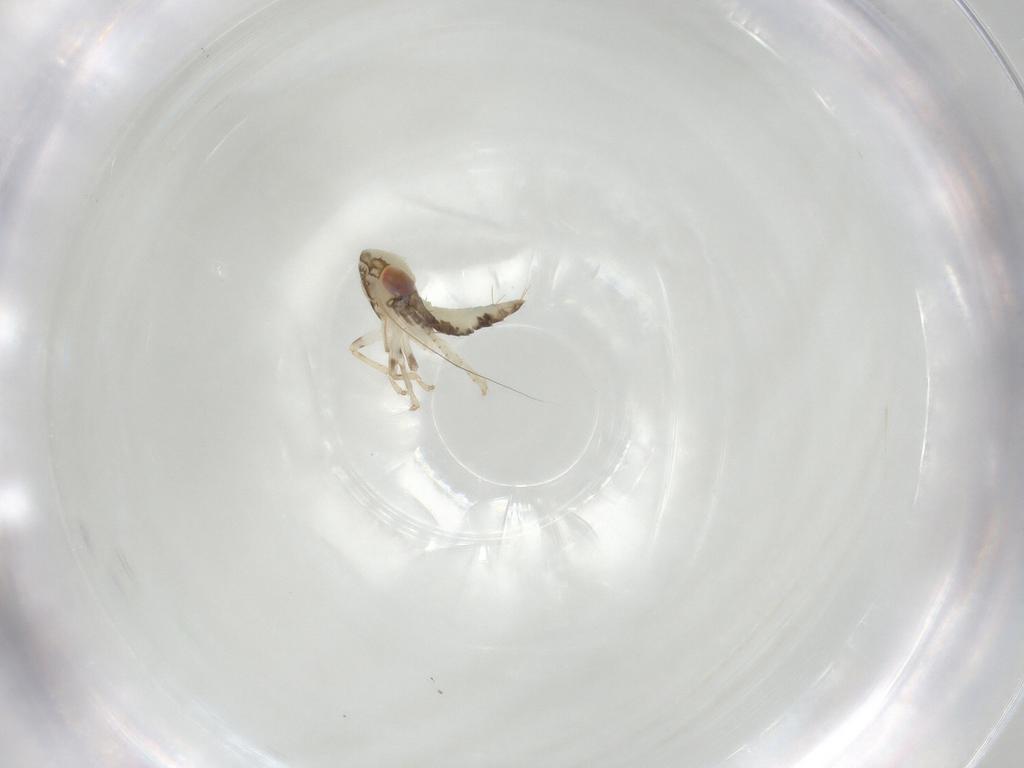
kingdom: Animalia
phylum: Arthropoda
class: Insecta
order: Hemiptera
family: Cicadellidae
